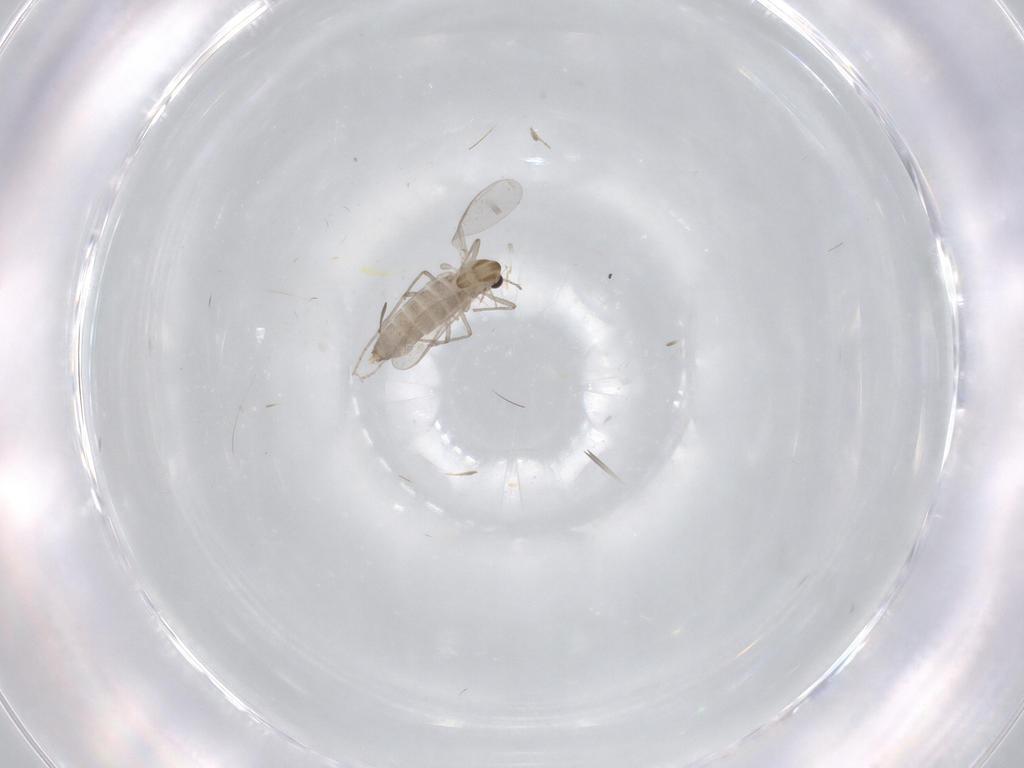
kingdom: Animalia
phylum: Arthropoda
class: Insecta
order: Diptera
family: Chironomidae
